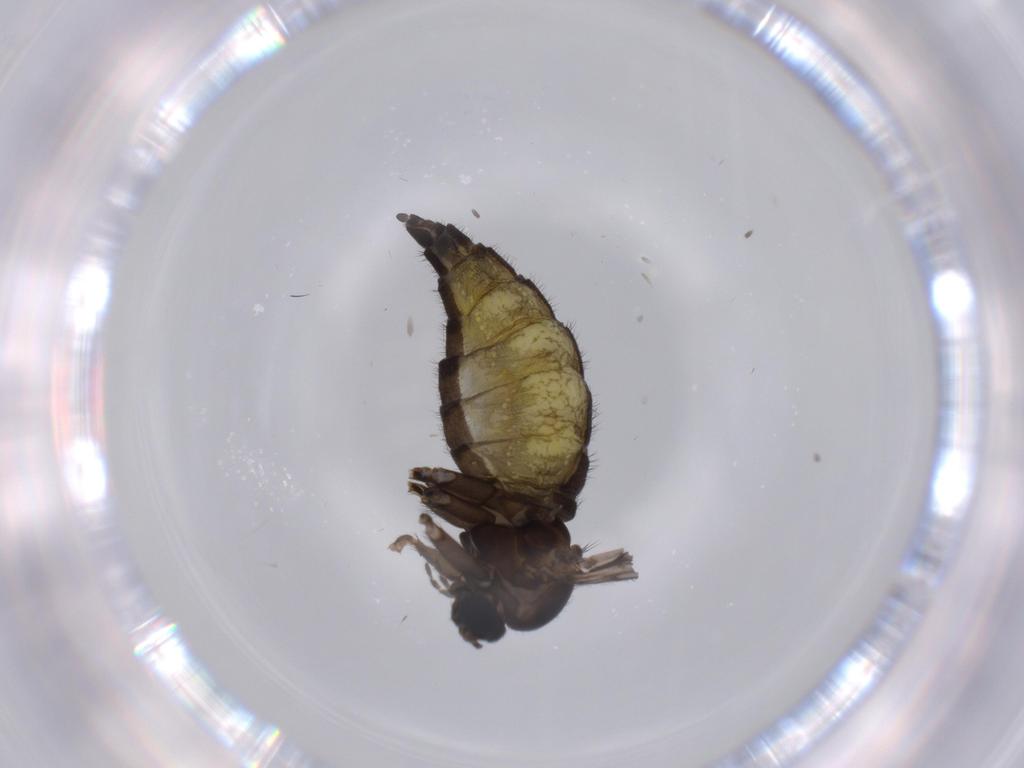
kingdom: Animalia
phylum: Arthropoda
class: Insecta
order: Diptera
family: Sciaridae
